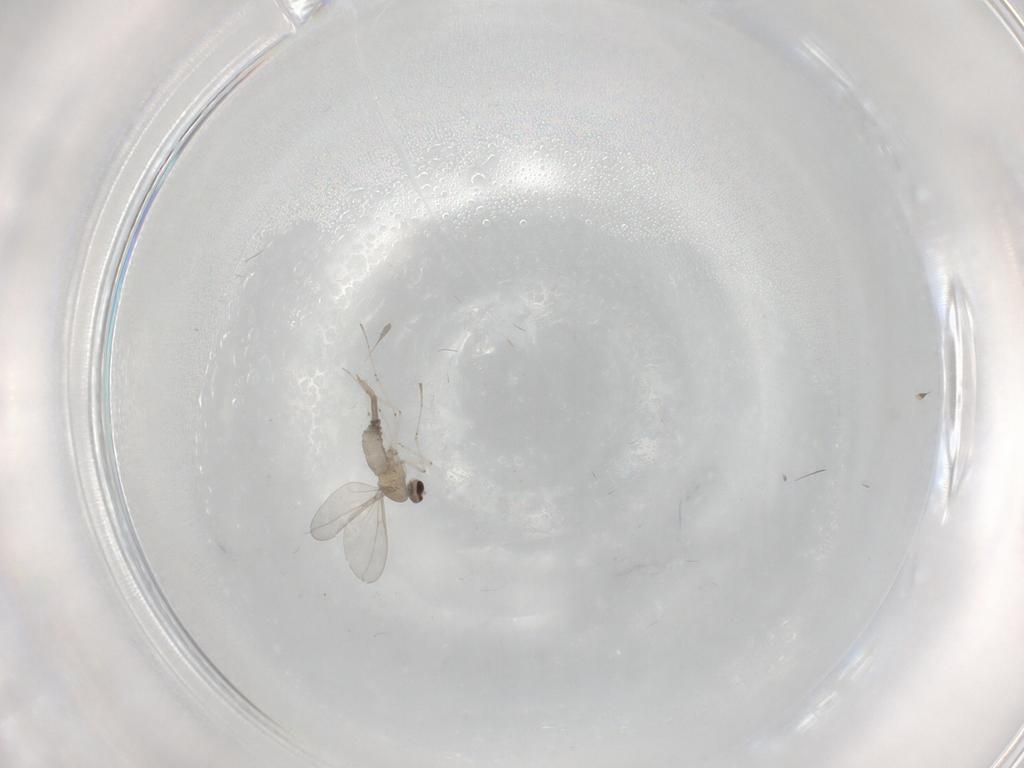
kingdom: Animalia
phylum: Arthropoda
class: Insecta
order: Diptera
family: Cecidomyiidae
